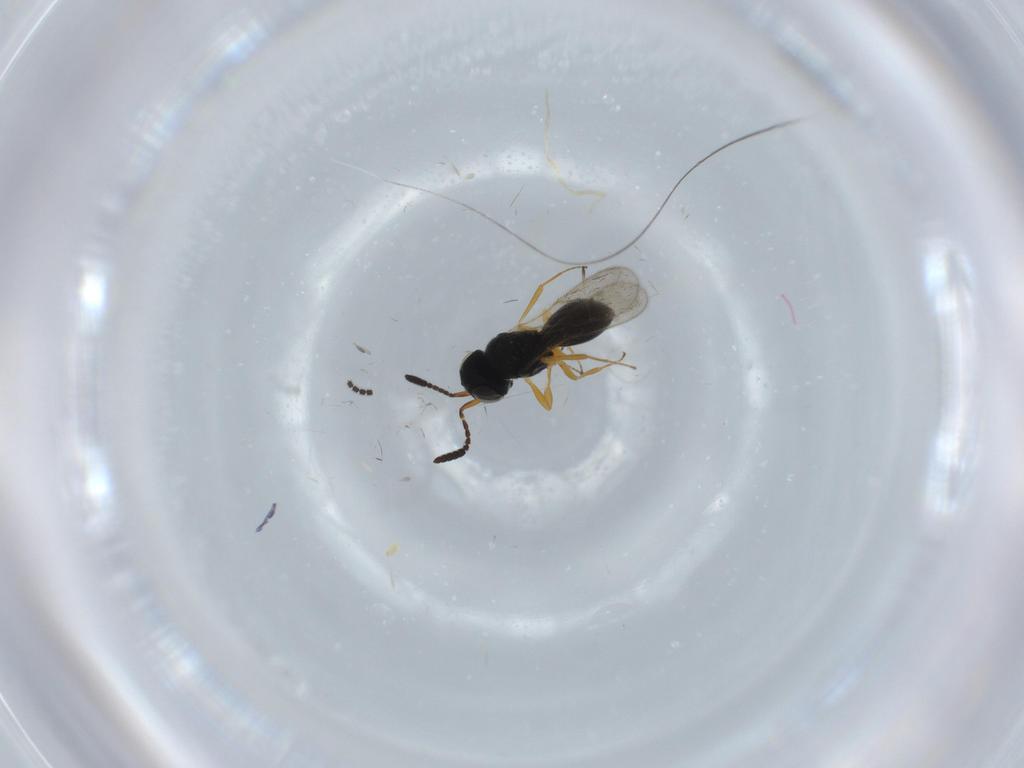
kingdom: Animalia
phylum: Arthropoda
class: Insecta
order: Hymenoptera
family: Scelionidae
